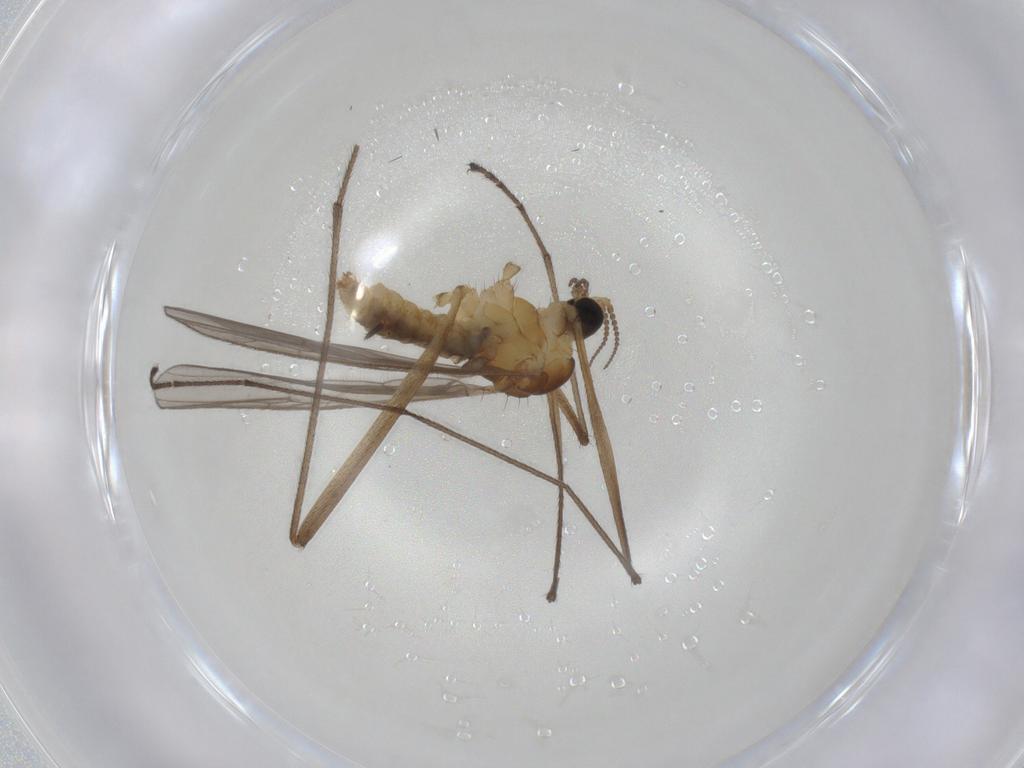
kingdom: Animalia
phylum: Arthropoda
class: Insecta
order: Diptera
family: Limoniidae
